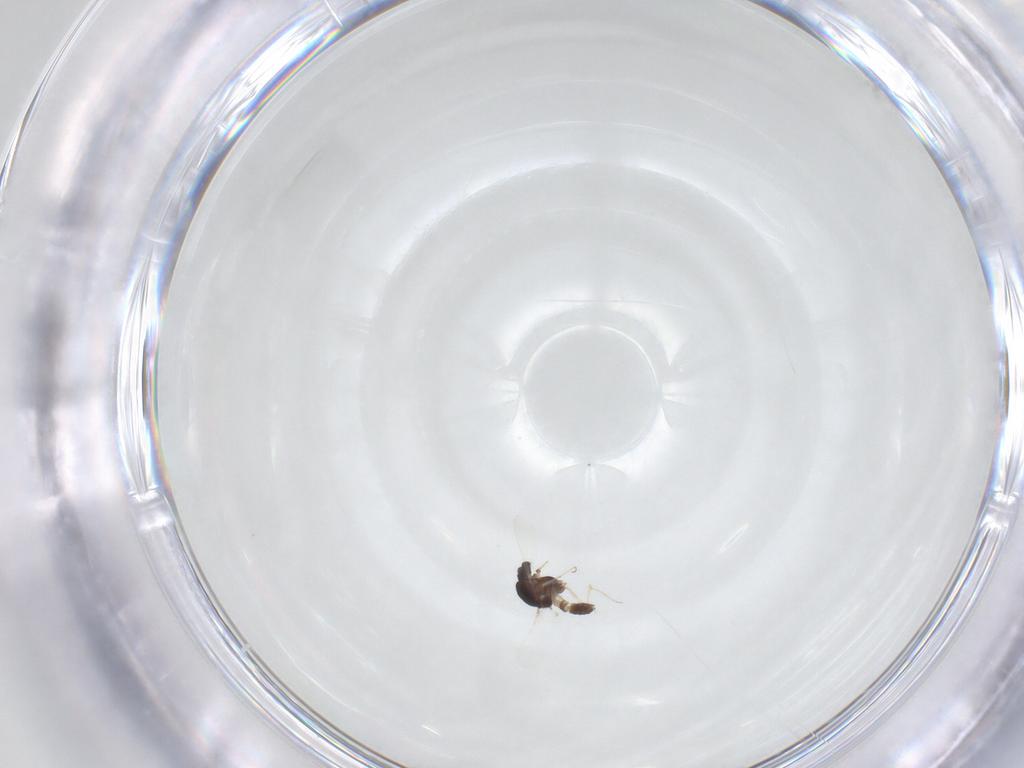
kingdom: Animalia
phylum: Arthropoda
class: Insecta
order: Diptera
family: Chironomidae
